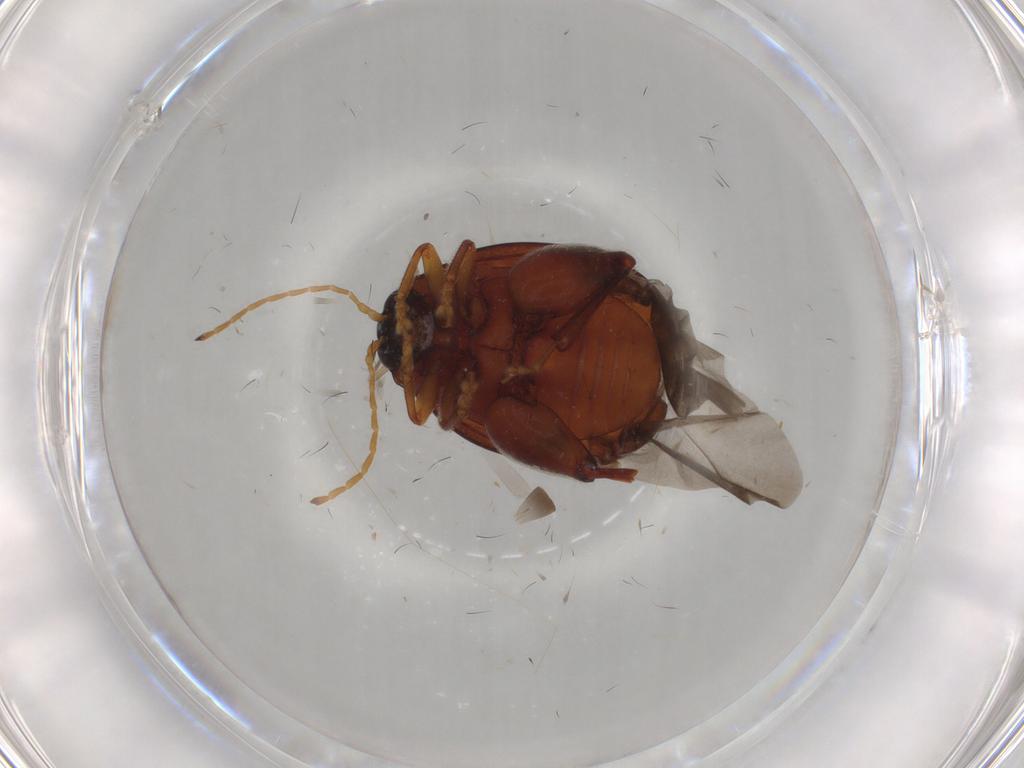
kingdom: Animalia
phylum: Arthropoda
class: Insecta
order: Coleoptera
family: Chrysomelidae
